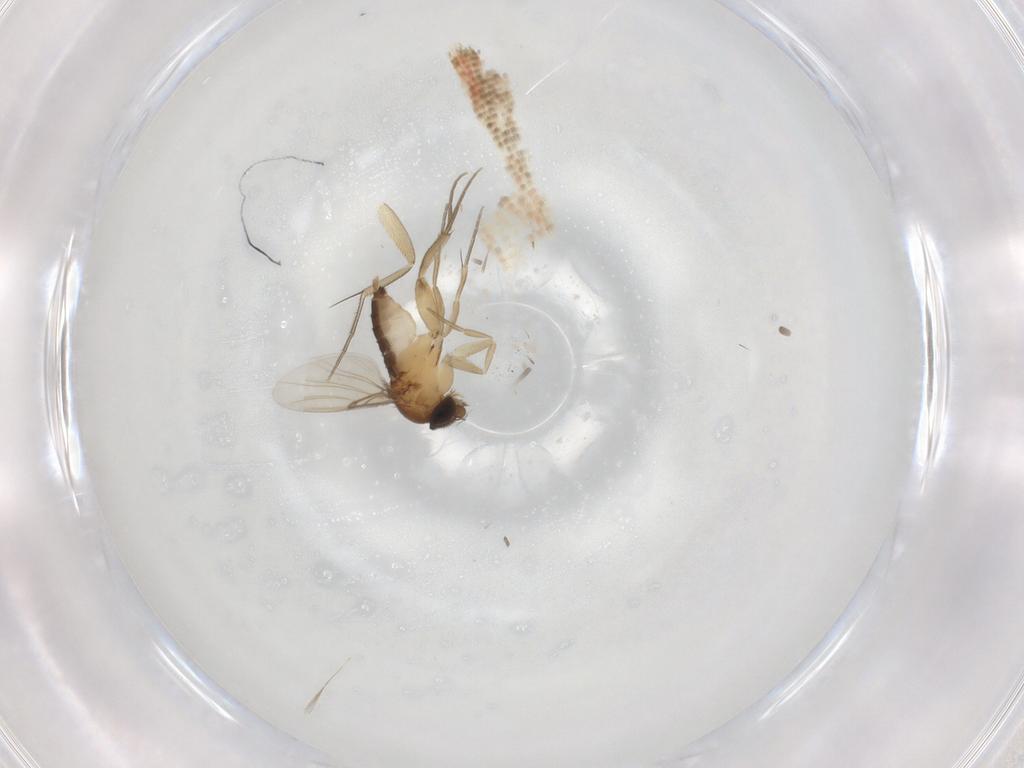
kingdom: Animalia
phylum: Arthropoda
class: Insecta
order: Diptera
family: Phoridae
